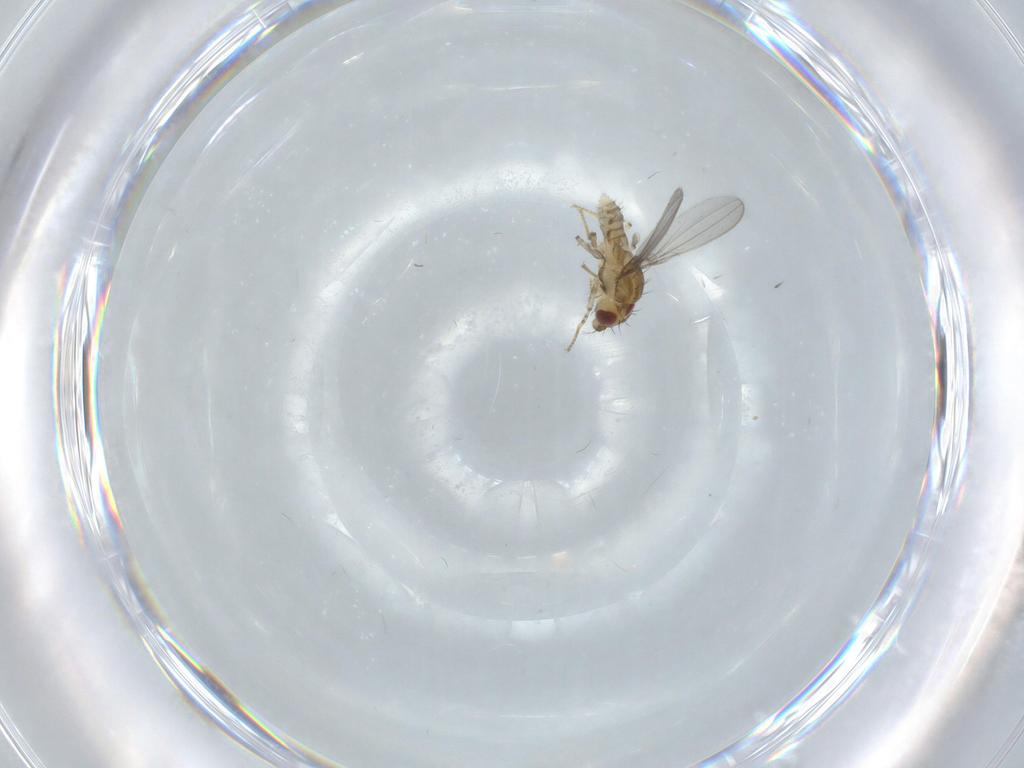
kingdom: Animalia
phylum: Arthropoda
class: Insecta
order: Diptera
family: Asteiidae
